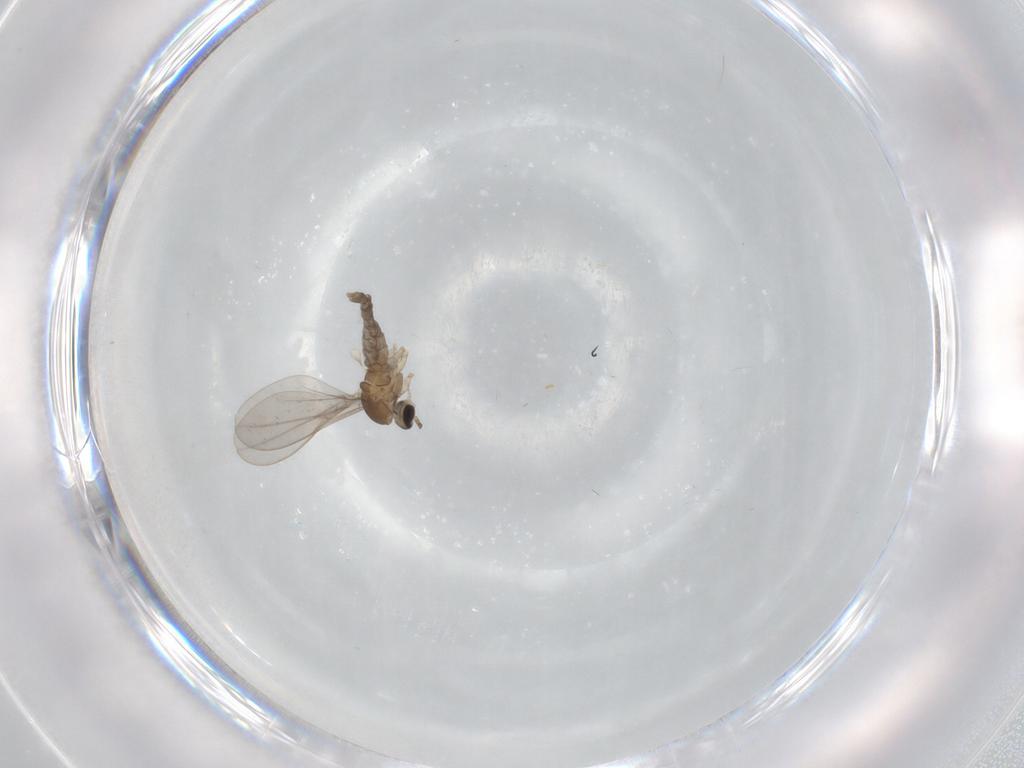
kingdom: Animalia
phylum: Arthropoda
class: Insecta
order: Diptera
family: Cecidomyiidae
